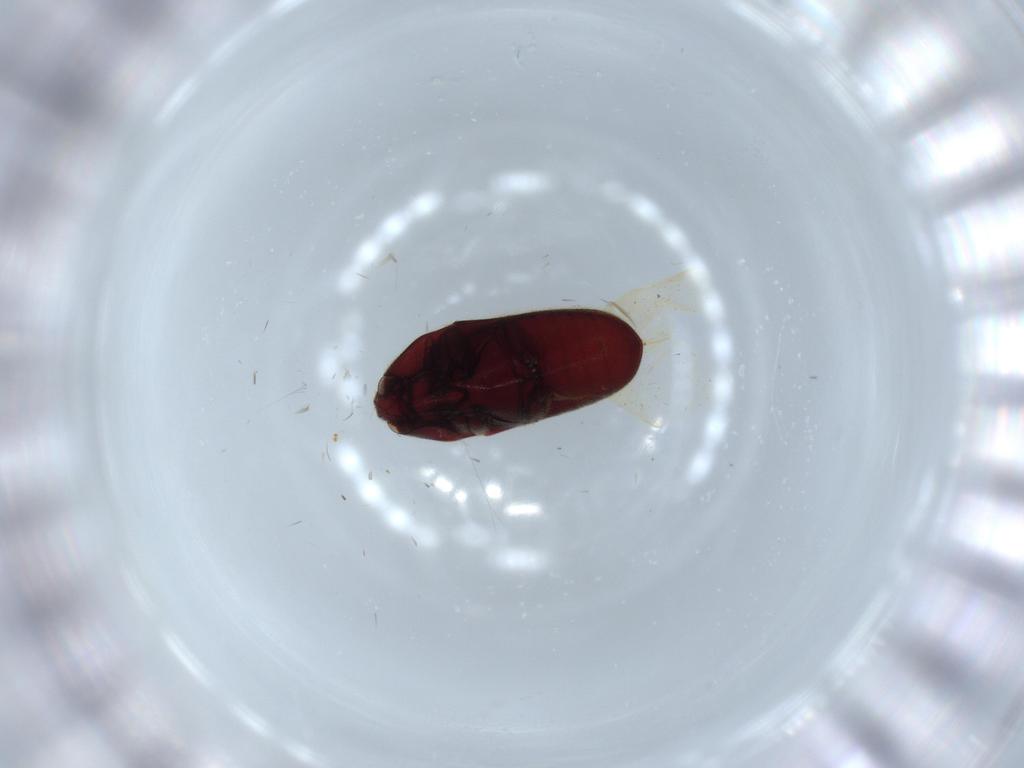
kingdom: Animalia
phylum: Arthropoda
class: Insecta
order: Coleoptera
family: Throscidae
